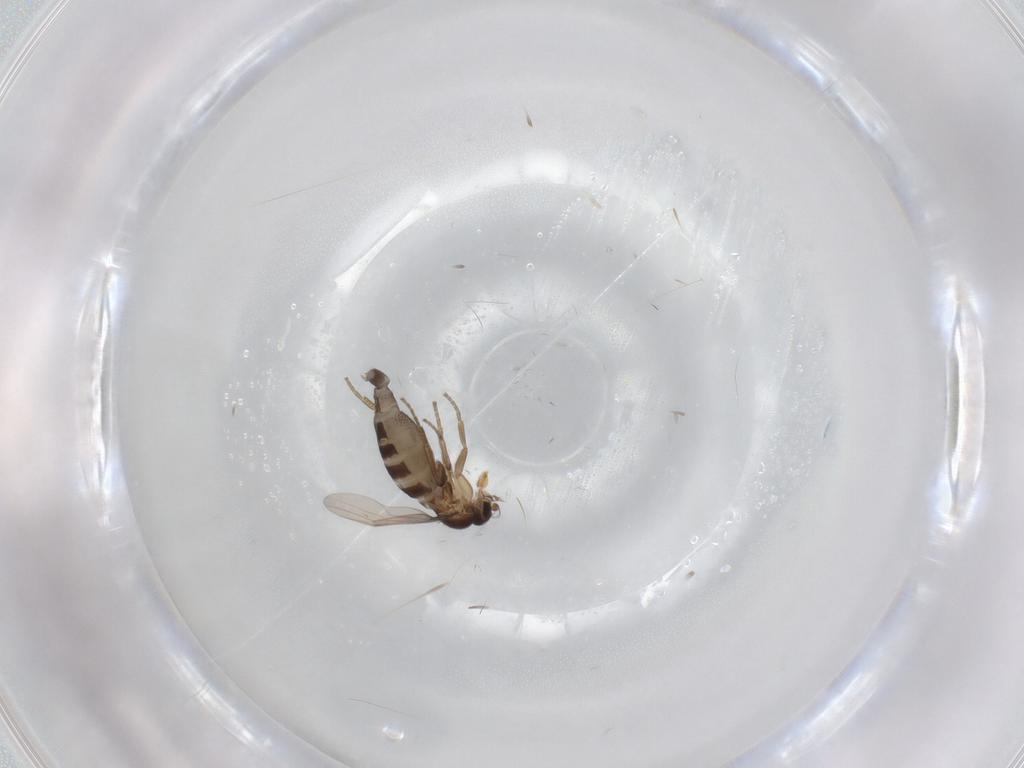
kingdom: Animalia
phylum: Arthropoda
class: Insecta
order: Diptera
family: Phoridae
